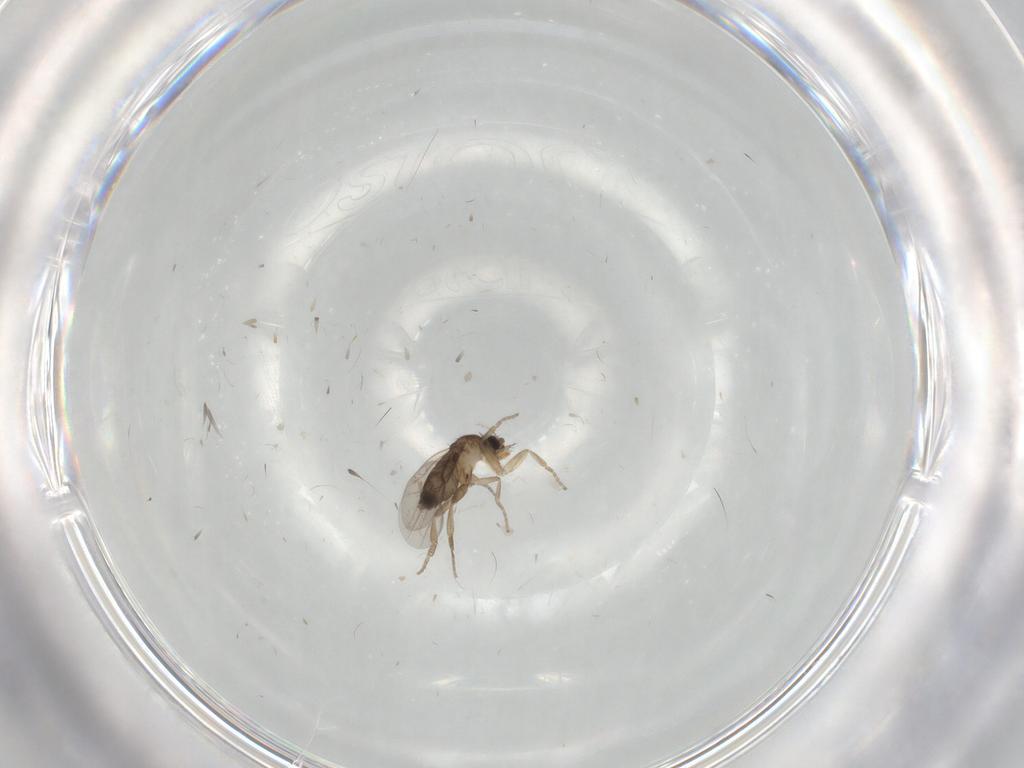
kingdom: Animalia
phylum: Arthropoda
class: Insecta
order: Diptera
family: Phoridae
